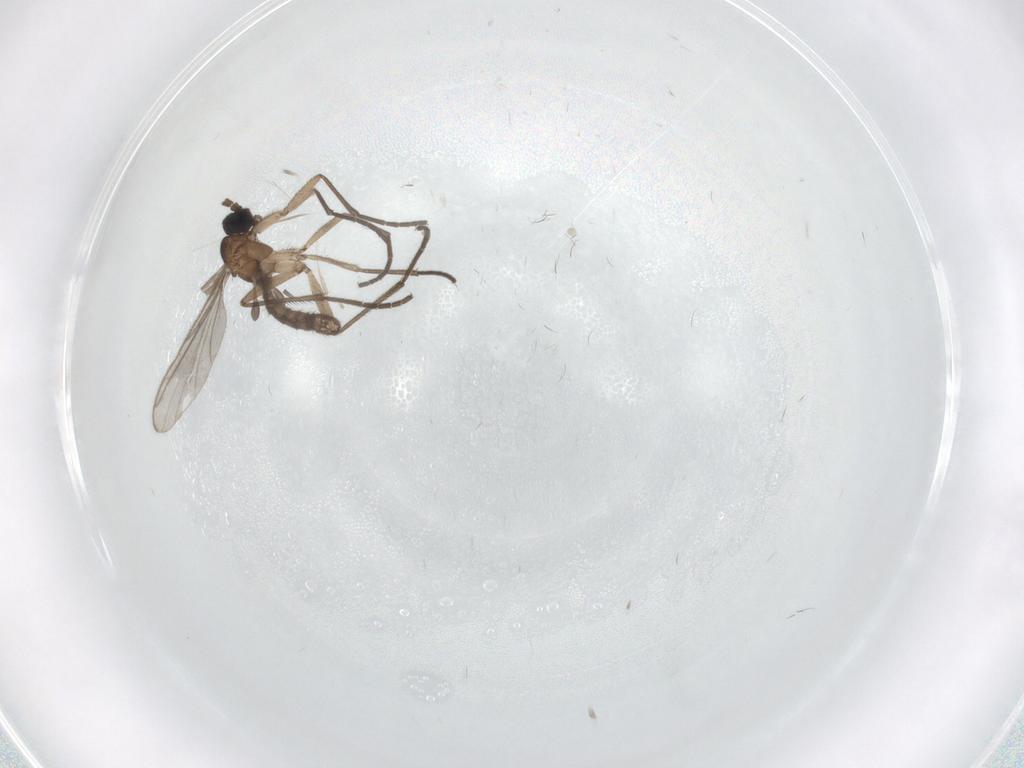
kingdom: Animalia
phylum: Arthropoda
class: Insecta
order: Diptera
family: Sciaridae
